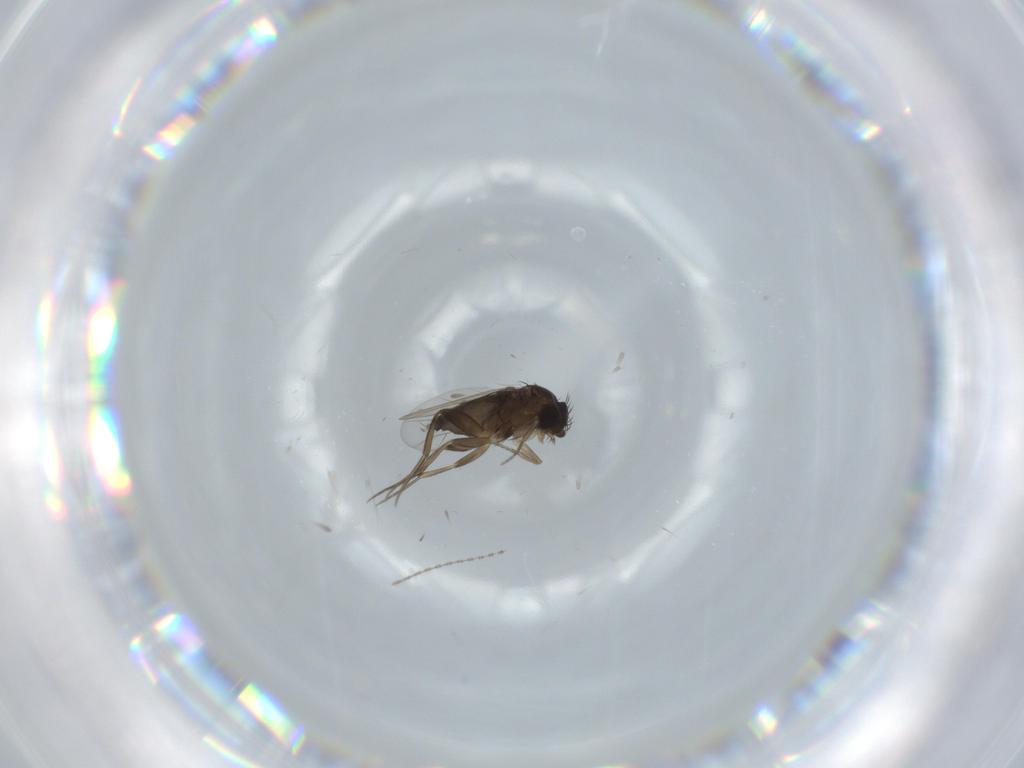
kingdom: Animalia
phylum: Arthropoda
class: Insecta
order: Diptera
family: Phoridae
